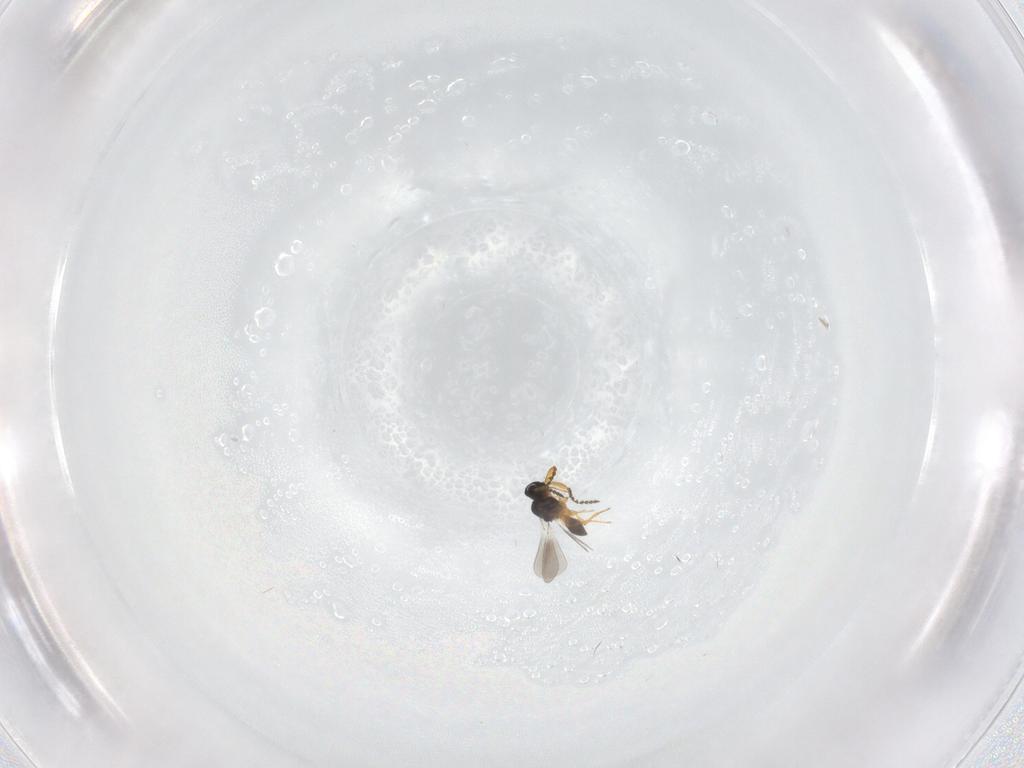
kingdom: Animalia
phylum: Arthropoda
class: Insecta
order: Hymenoptera
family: Platygastridae
